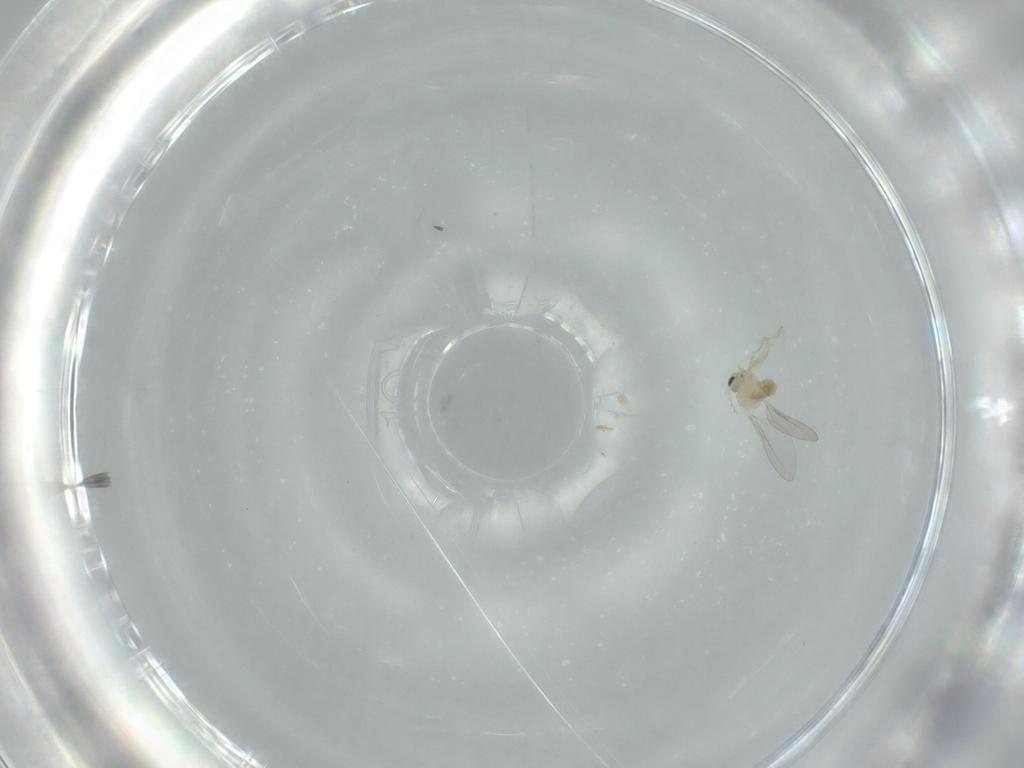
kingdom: Animalia
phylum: Arthropoda
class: Insecta
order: Diptera
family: Cecidomyiidae
